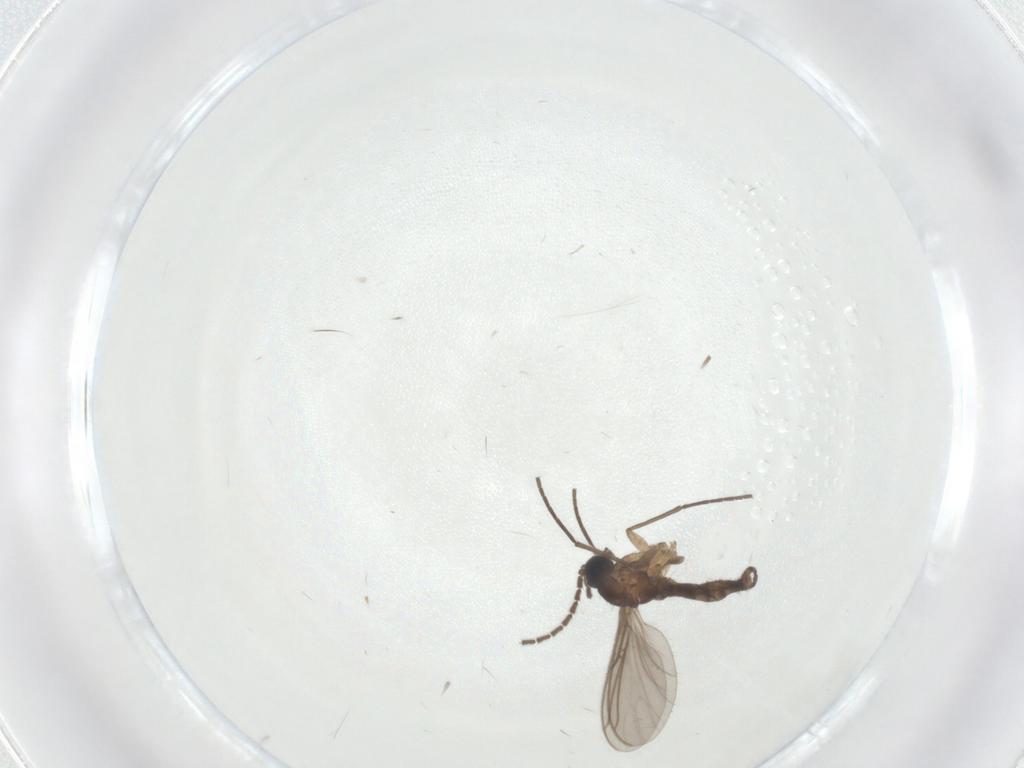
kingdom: Animalia
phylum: Arthropoda
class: Insecta
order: Diptera
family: Sciaridae
